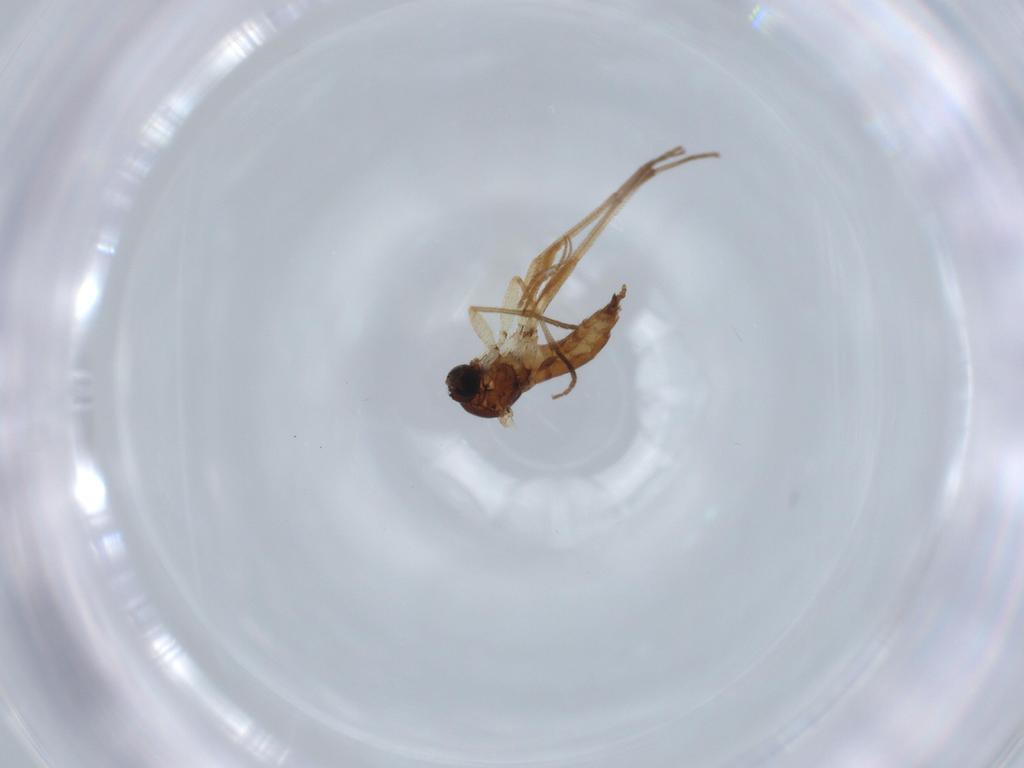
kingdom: Animalia
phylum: Arthropoda
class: Insecta
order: Diptera
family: Sciaridae
